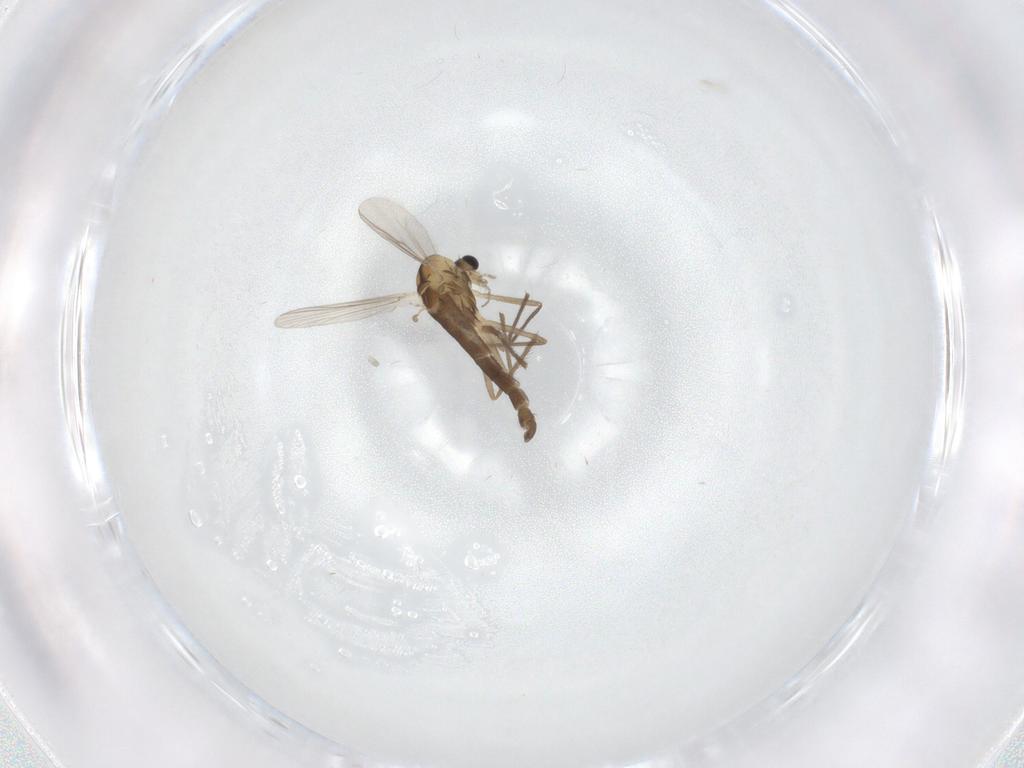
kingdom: Animalia
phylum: Arthropoda
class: Insecta
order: Diptera
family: Chironomidae
